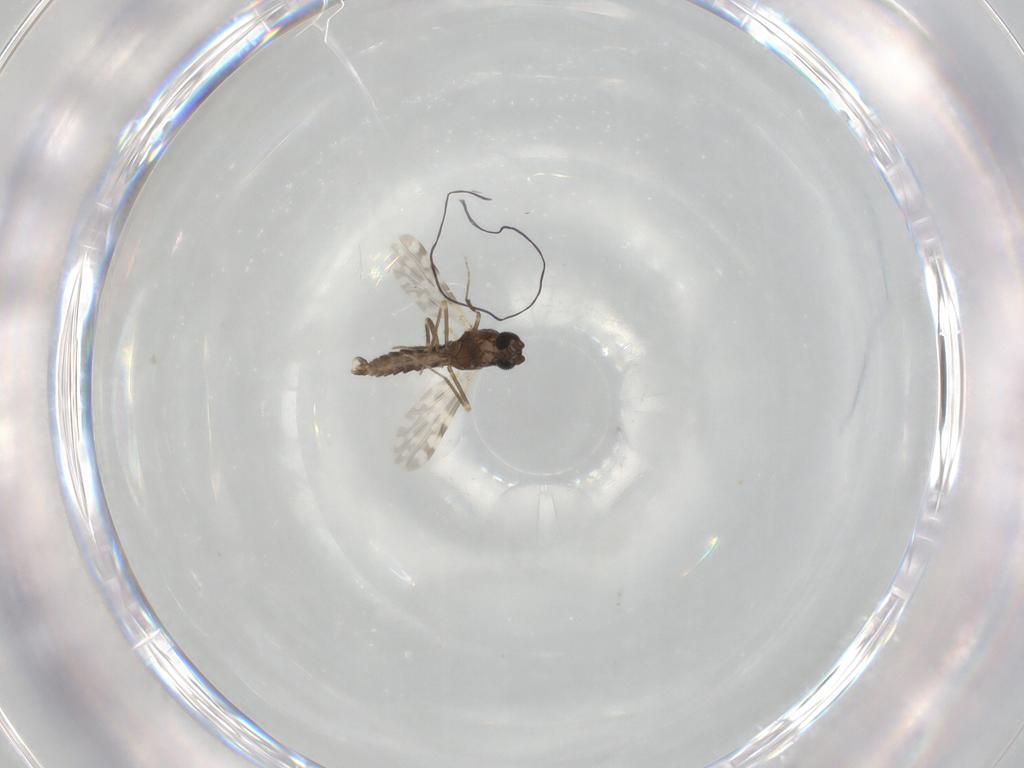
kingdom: Animalia
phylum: Arthropoda
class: Insecta
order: Diptera
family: Ceratopogonidae
